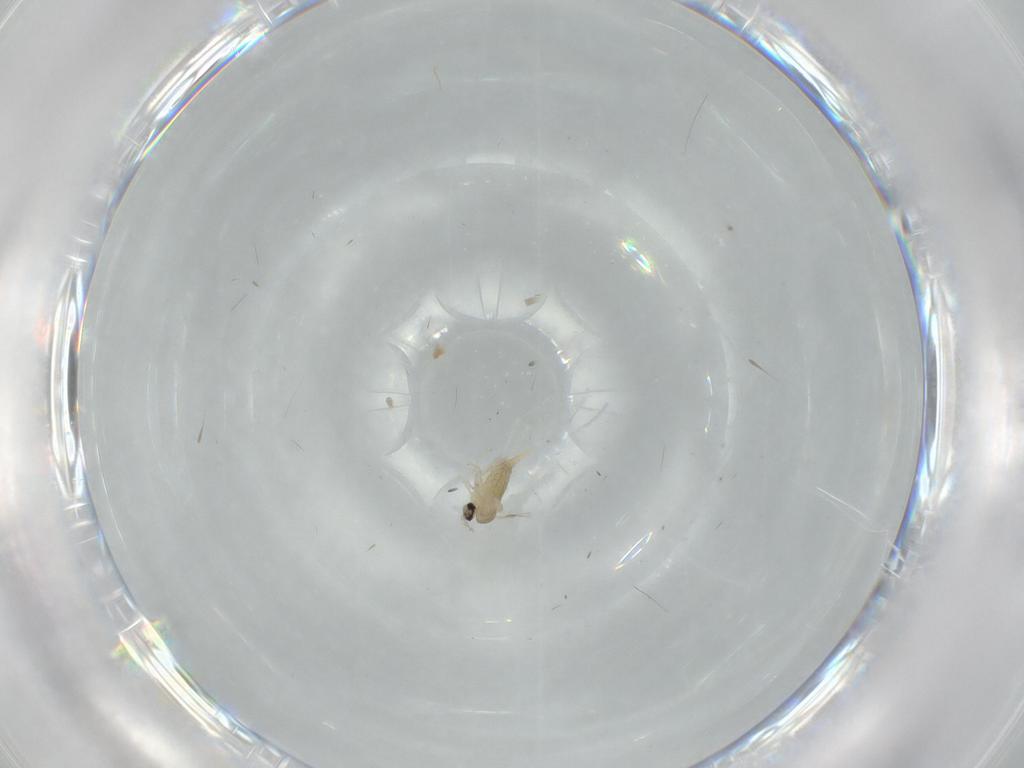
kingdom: Animalia
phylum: Arthropoda
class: Insecta
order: Diptera
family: Cecidomyiidae
